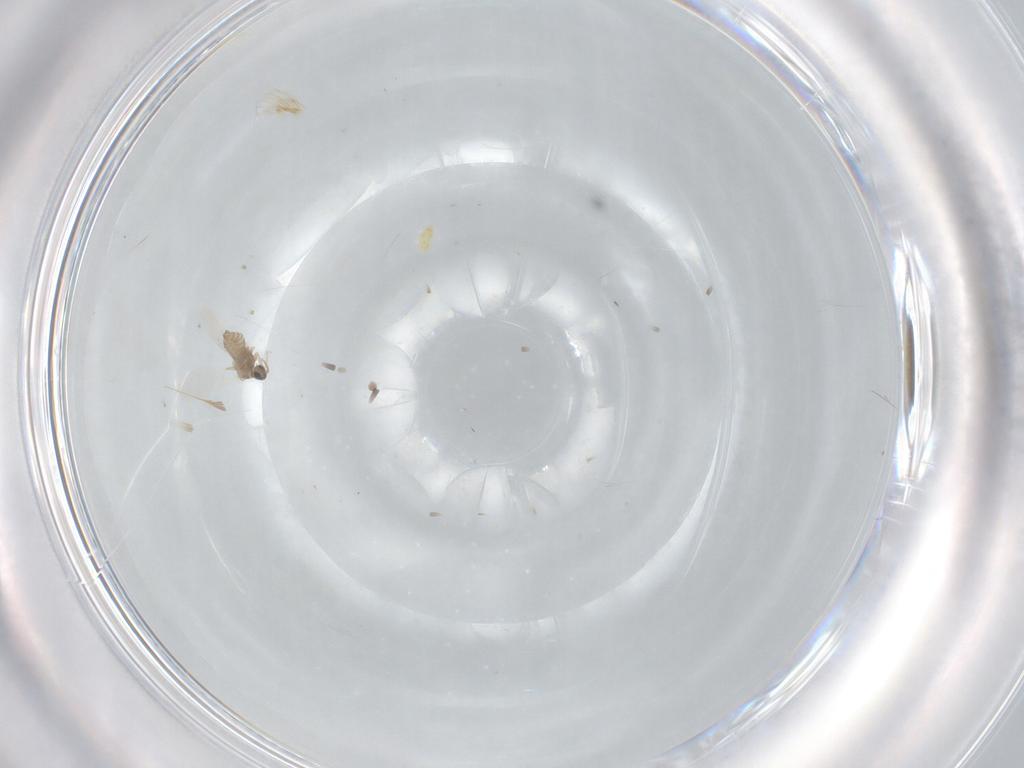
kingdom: Animalia
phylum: Arthropoda
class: Insecta
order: Diptera
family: Cecidomyiidae
